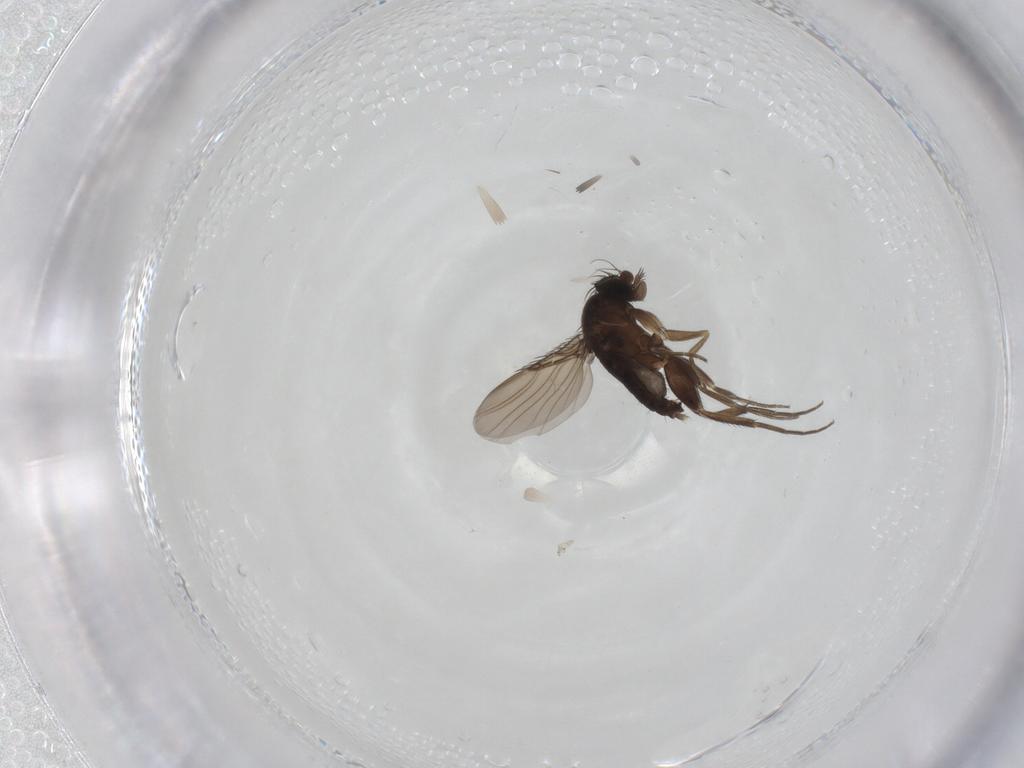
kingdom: Animalia
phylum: Arthropoda
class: Insecta
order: Diptera
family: Phoridae
